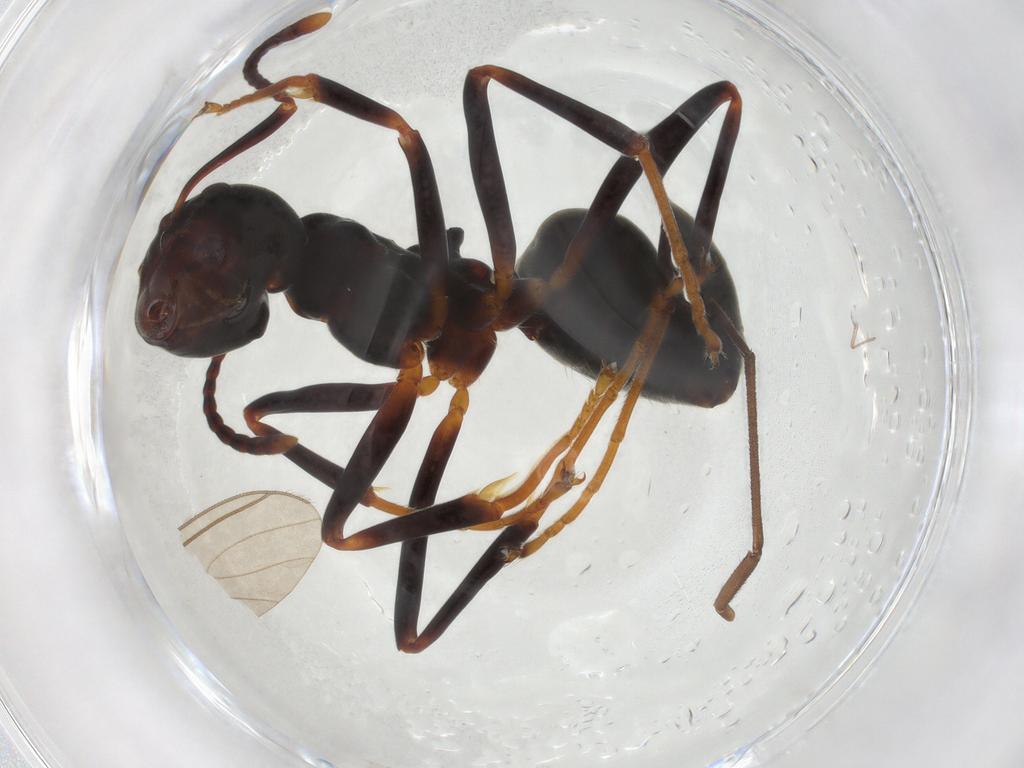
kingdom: Animalia
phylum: Arthropoda
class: Insecta
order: Hymenoptera
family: Formicidae
